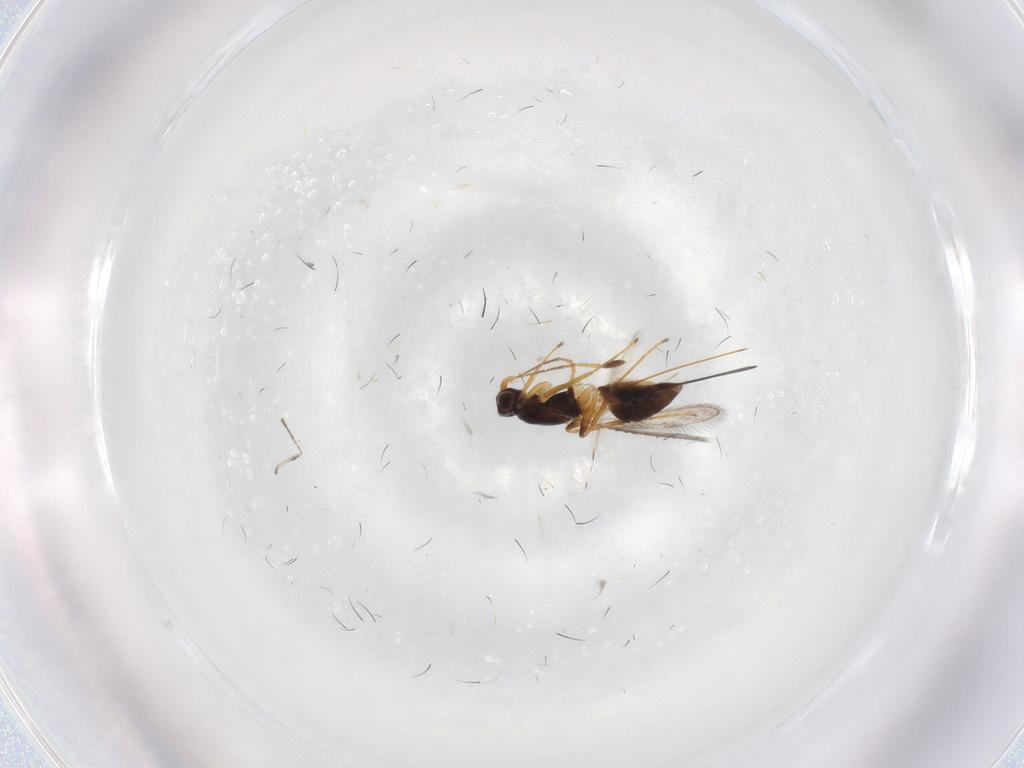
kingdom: Animalia
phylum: Arthropoda
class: Insecta
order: Hymenoptera
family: Mymaridae
